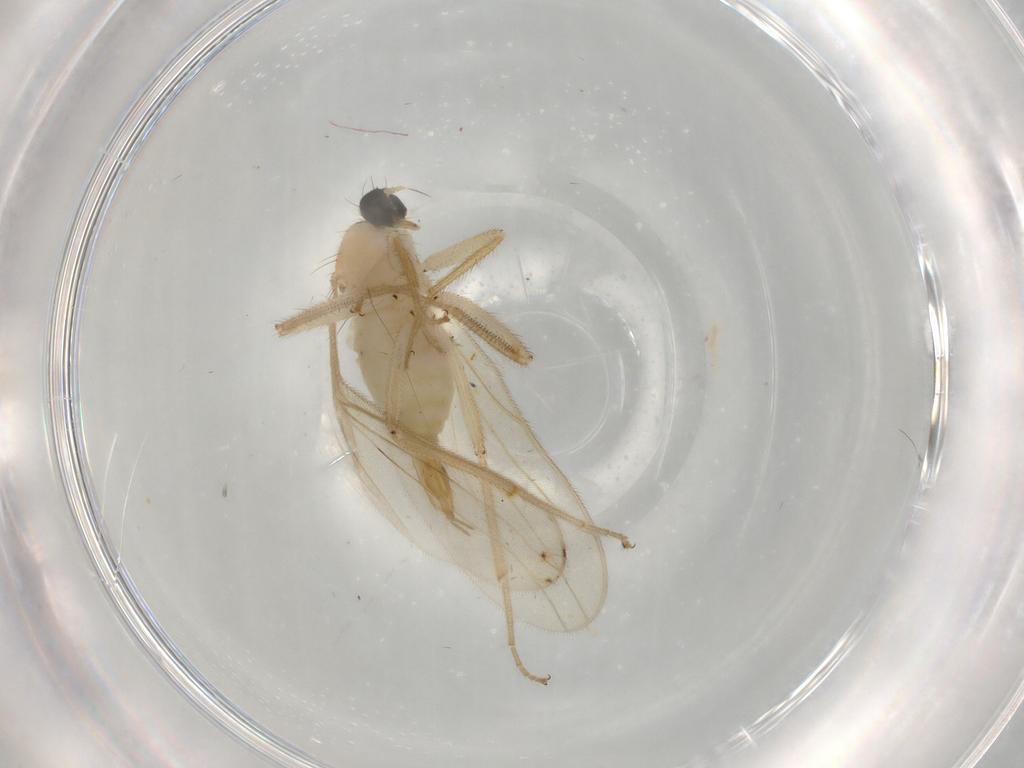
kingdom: Animalia
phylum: Arthropoda
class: Insecta
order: Diptera
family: Hybotidae
